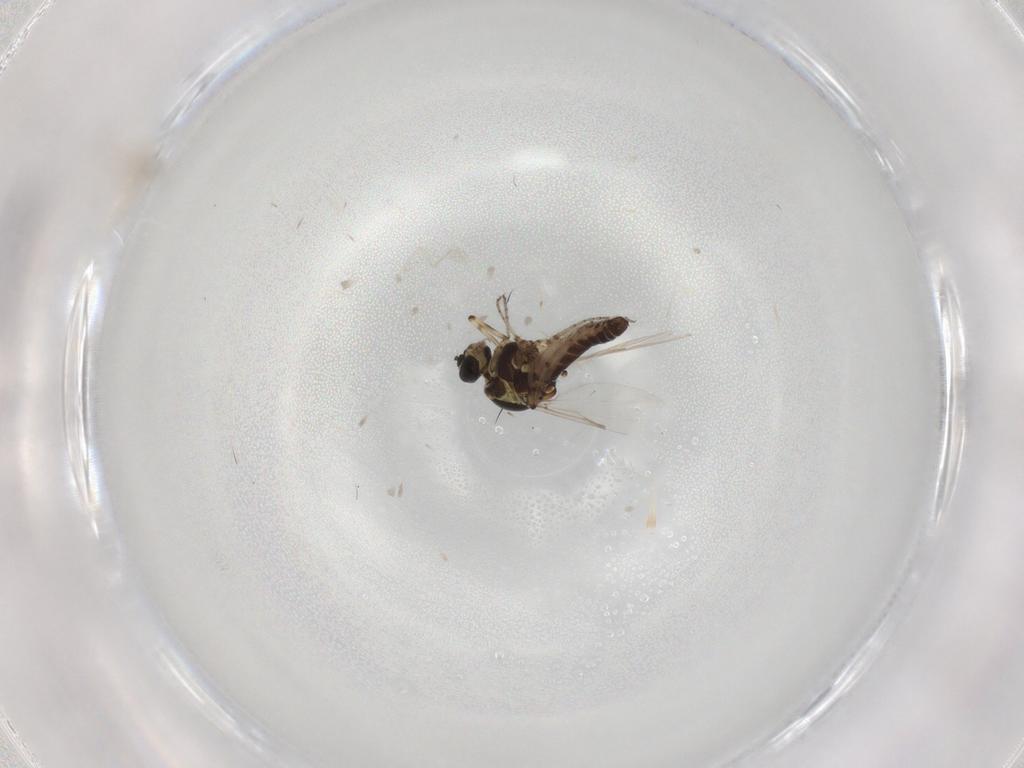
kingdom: Animalia
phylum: Arthropoda
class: Insecta
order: Diptera
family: Ceratopogonidae
